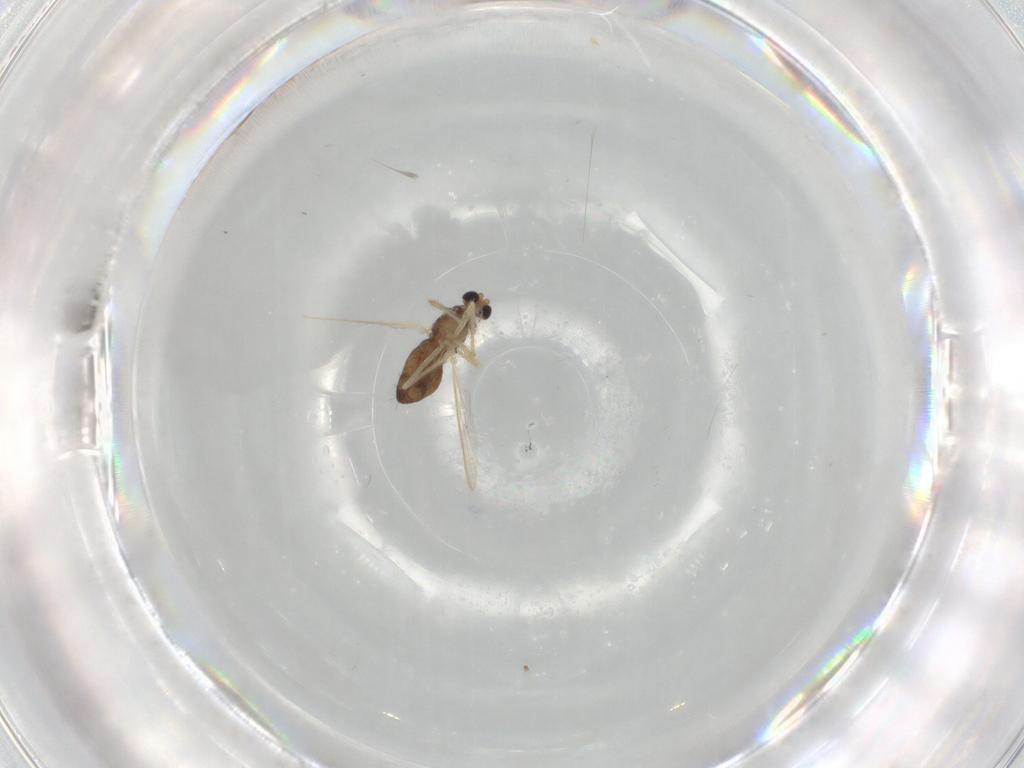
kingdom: Animalia
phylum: Arthropoda
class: Insecta
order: Diptera
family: Chironomidae
